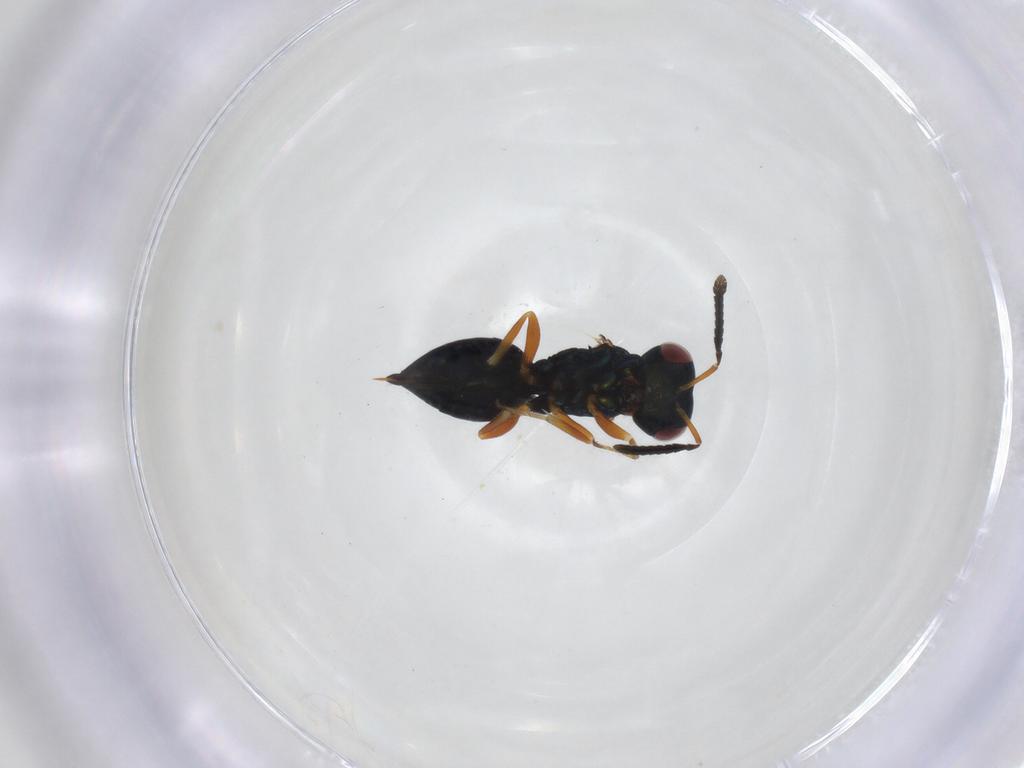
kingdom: Animalia
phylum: Arthropoda
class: Insecta
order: Hymenoptera
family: Pteromalidae
